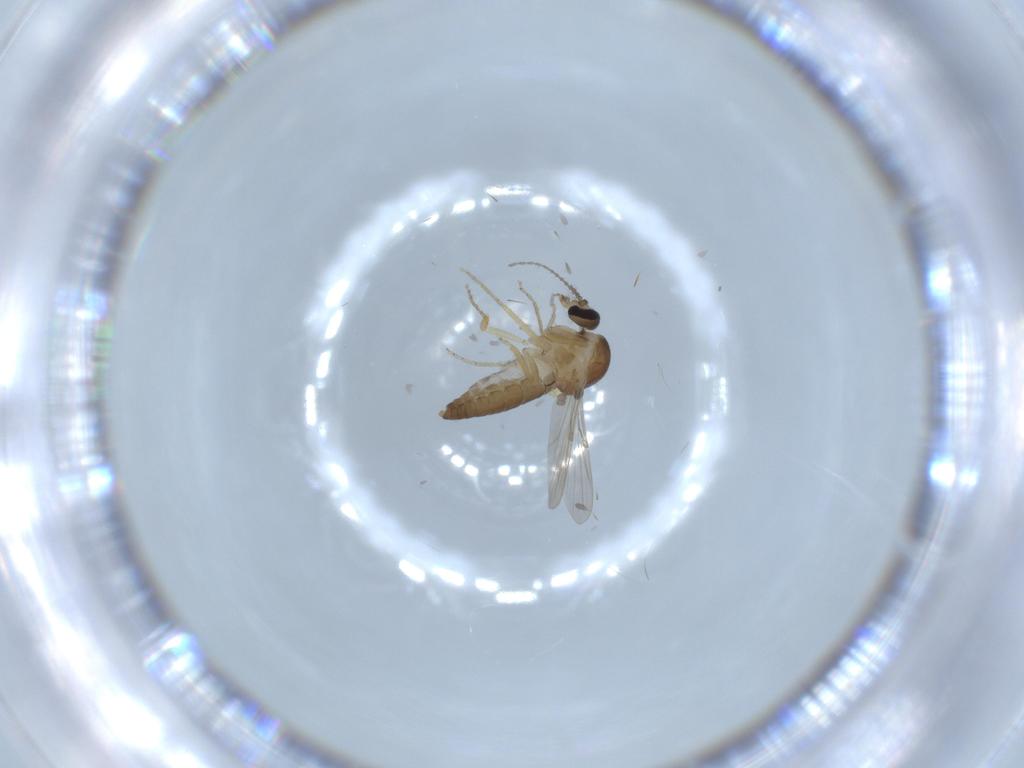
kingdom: Animalia
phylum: Arthropoda
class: Insecta
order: Diptera
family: Ceratopogonidae
